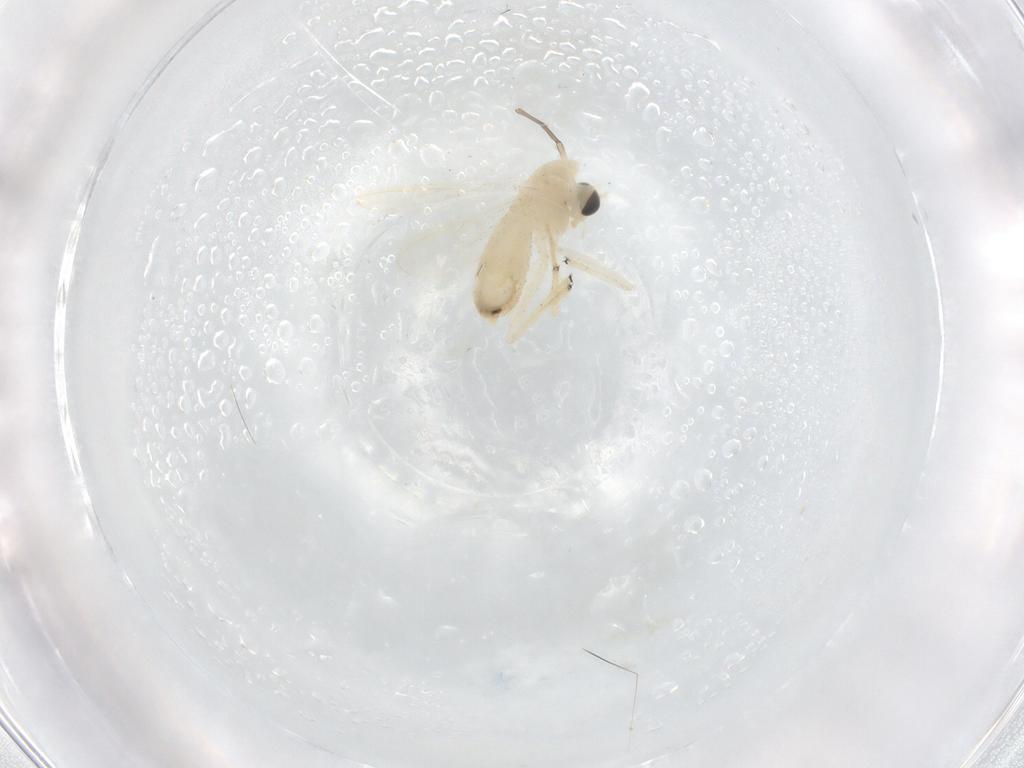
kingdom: Animalia
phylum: Arthropoda
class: Insecta
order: Diptera
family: Chironomidae
